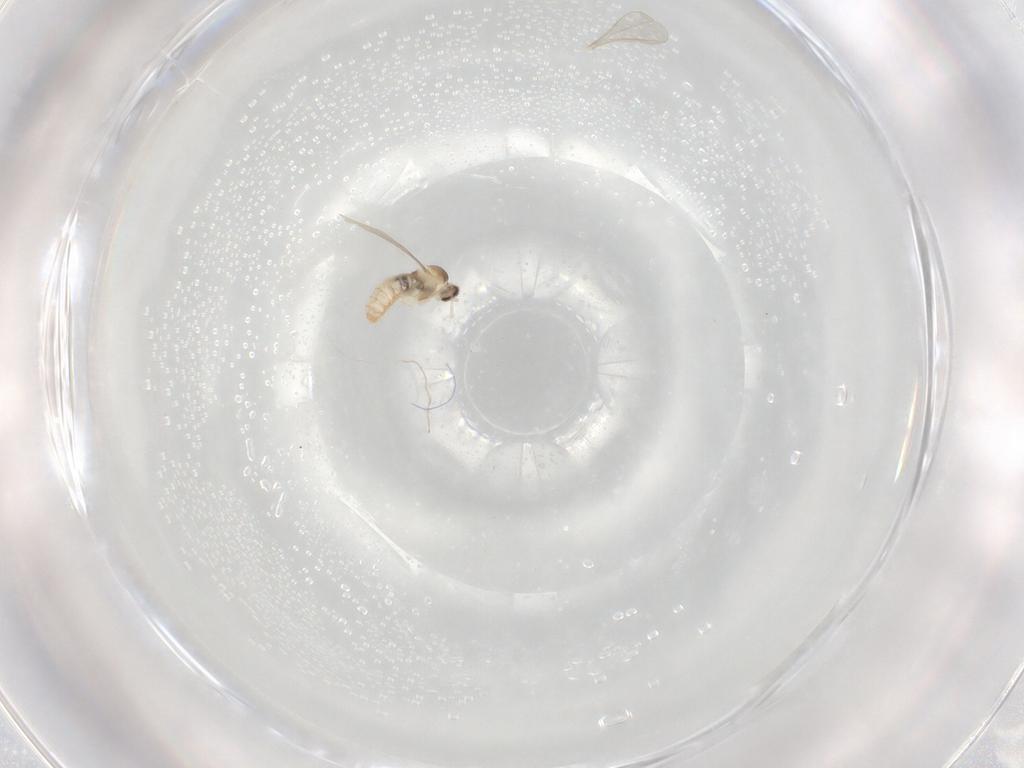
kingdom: Animalia
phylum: Arthropoda
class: Insecta
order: Diptera
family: Cecidomyiidae
